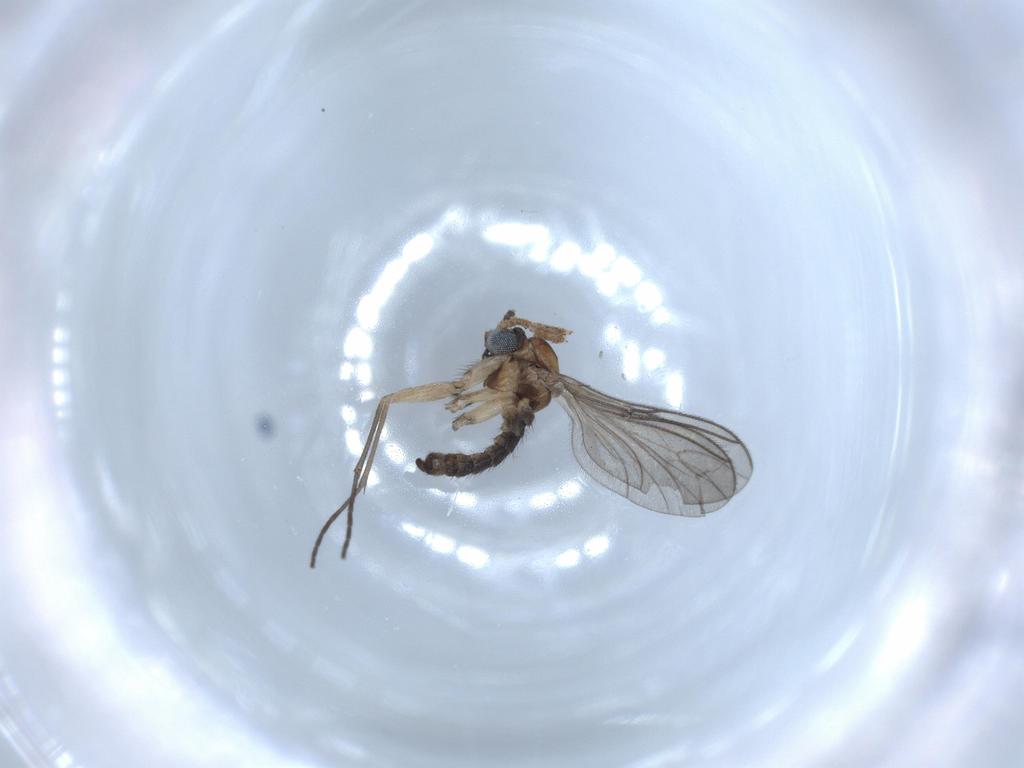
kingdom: Animalia
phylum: Arthropoda
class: Insecta
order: Diptera
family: Sciaridae
